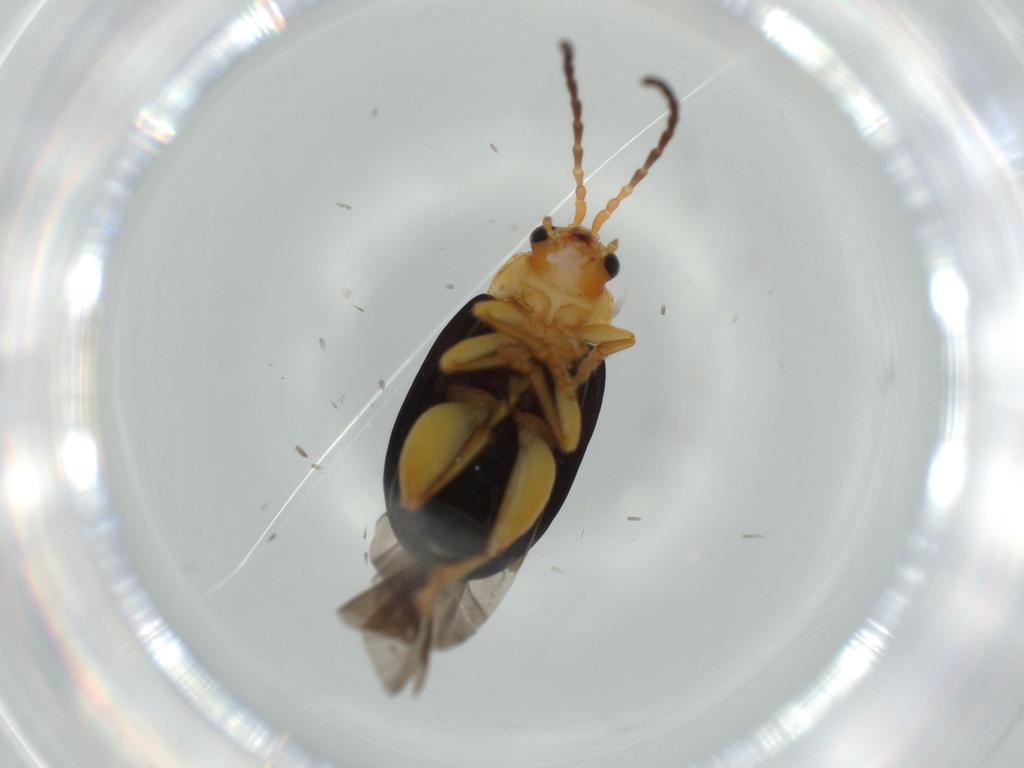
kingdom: Animalia
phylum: Arthropoda
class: Insecta
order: Coleoptera
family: Chrysomelidae
